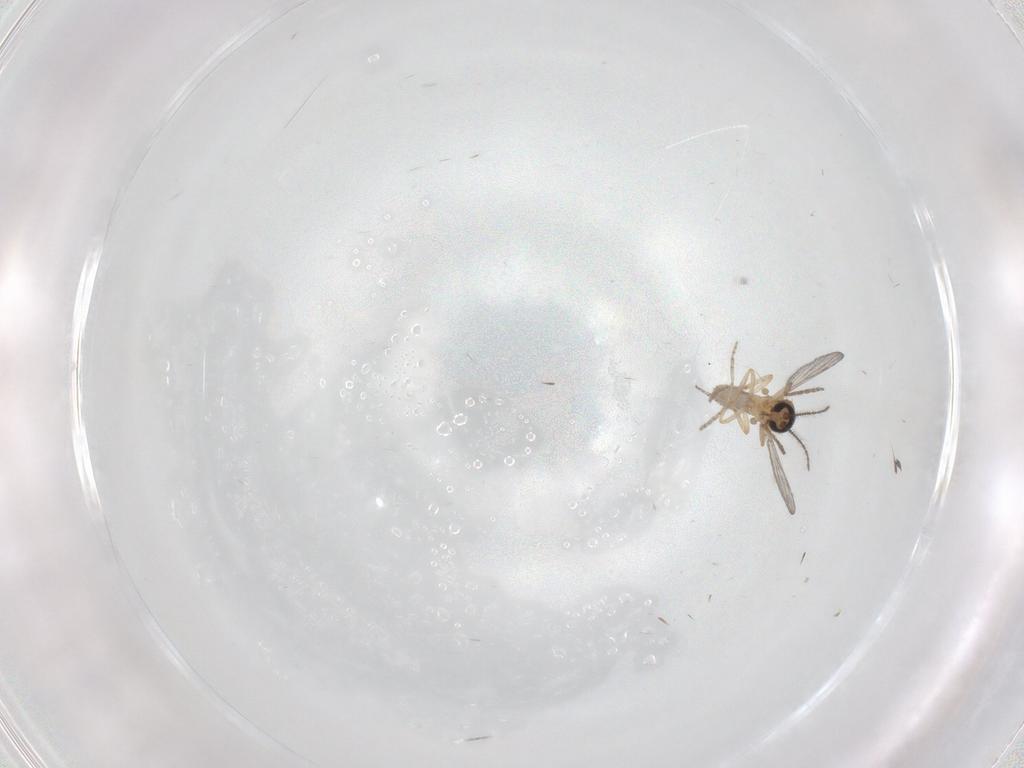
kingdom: Animalia
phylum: Arthropoda
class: Insecta
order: Diptera
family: Ceratopogonidae
